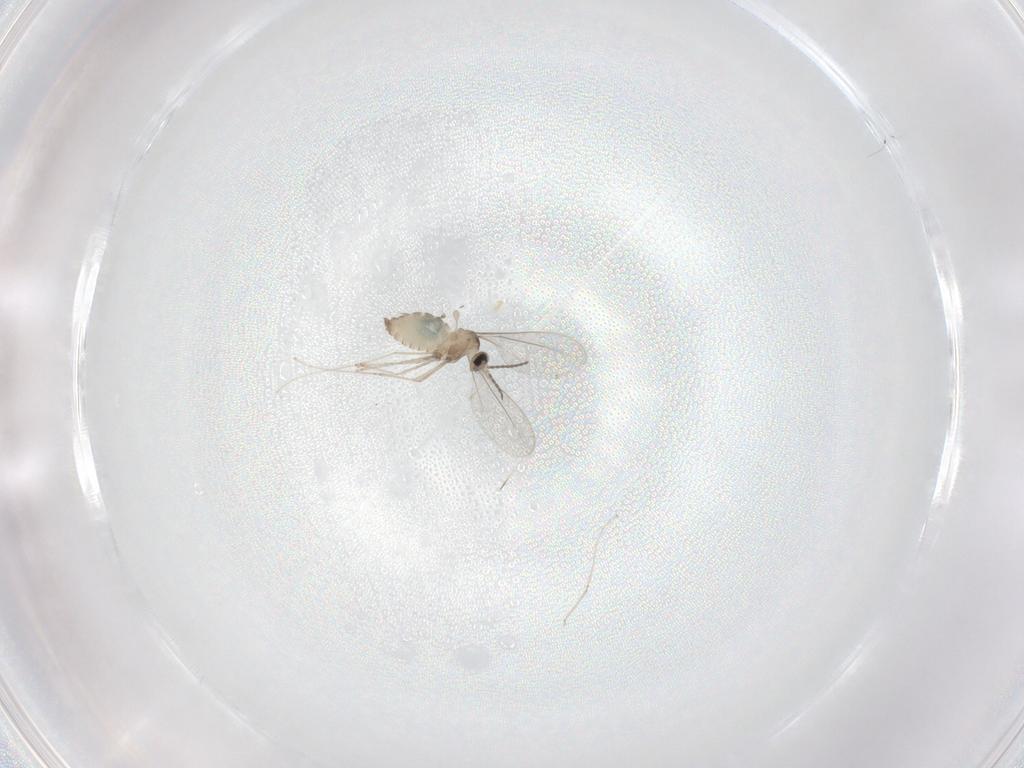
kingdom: Animalia
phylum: Arthropoda
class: Insecta
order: Diptera
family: Cecidomyiidae
